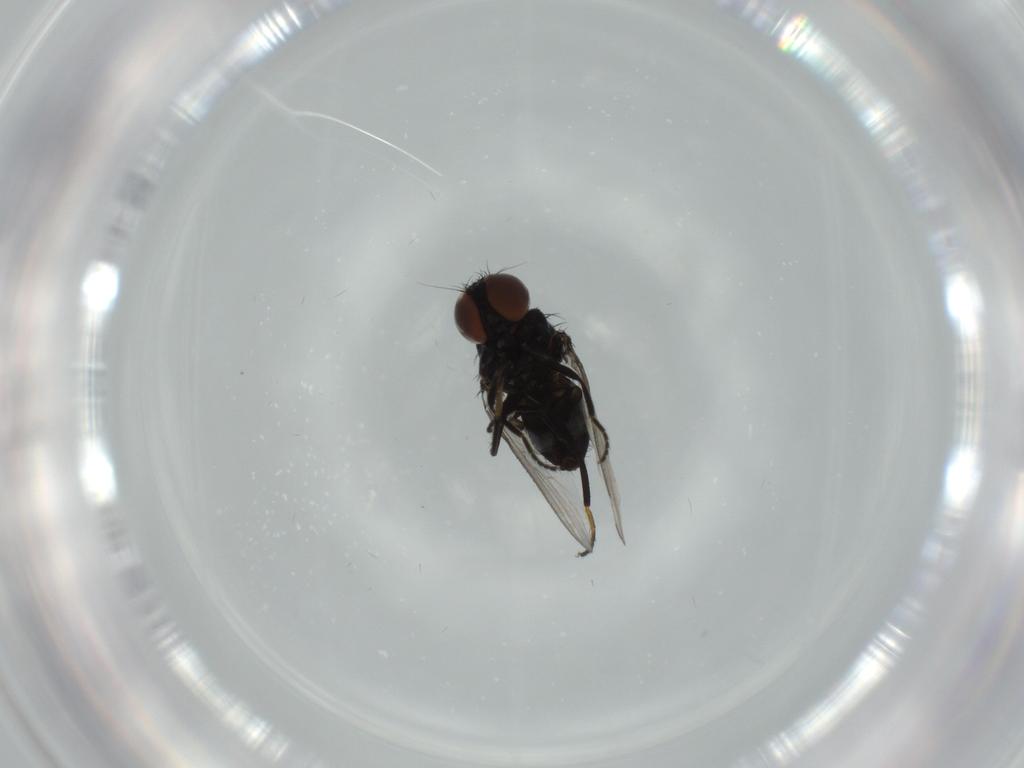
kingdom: Animalia
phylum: Arthropoda
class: Insecta
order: Diptera
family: Milichiidae
